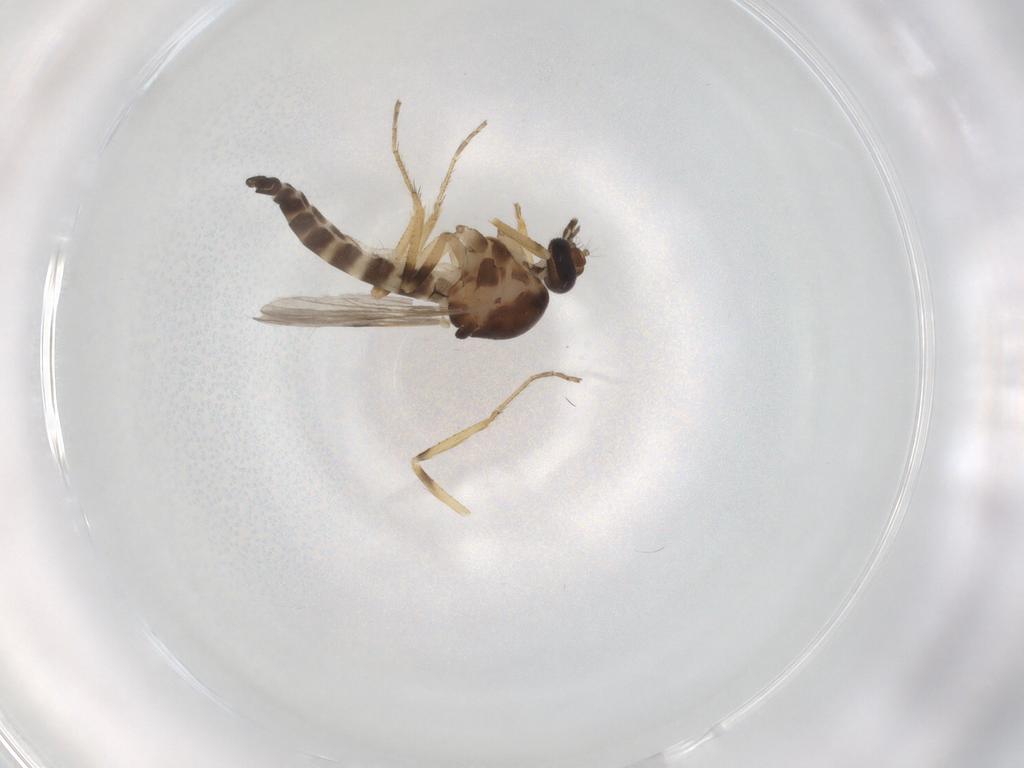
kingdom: Animalia
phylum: Arthropoda
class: Insecta
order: Diptera
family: Ceratopogonidae
